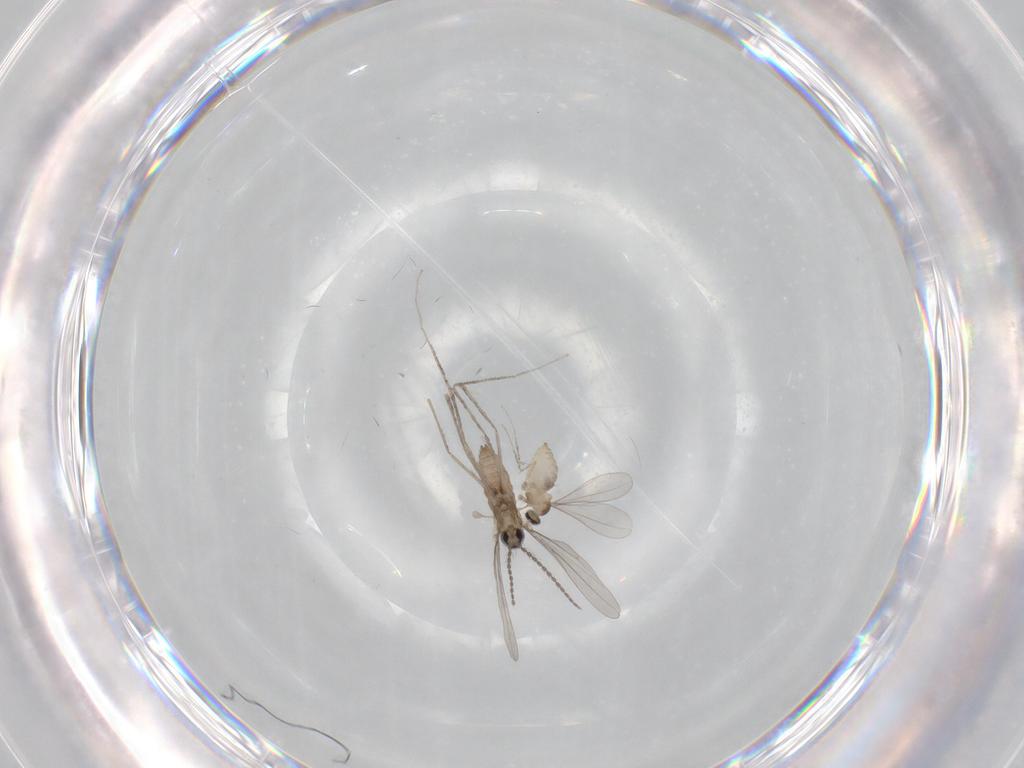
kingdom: Animalia
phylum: Arthropoda
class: Insecta
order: Diptera
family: Cecidomyiidae
